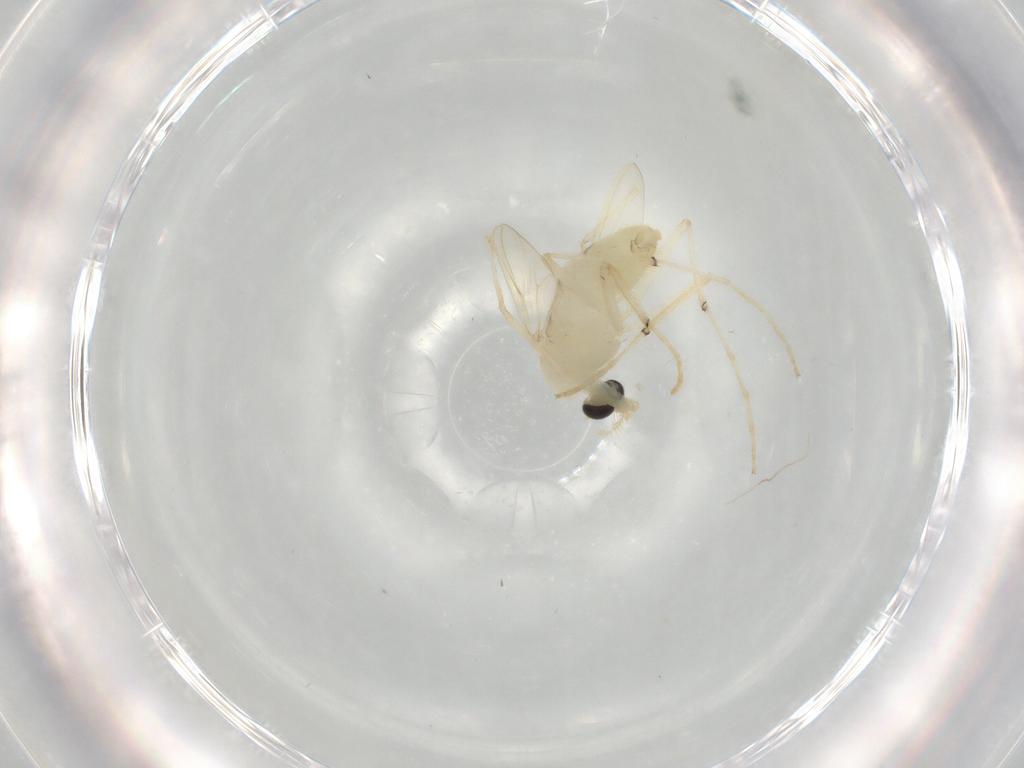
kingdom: Animalia
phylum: Arthropoda
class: Insecta
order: Diptera
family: Chironomidae
